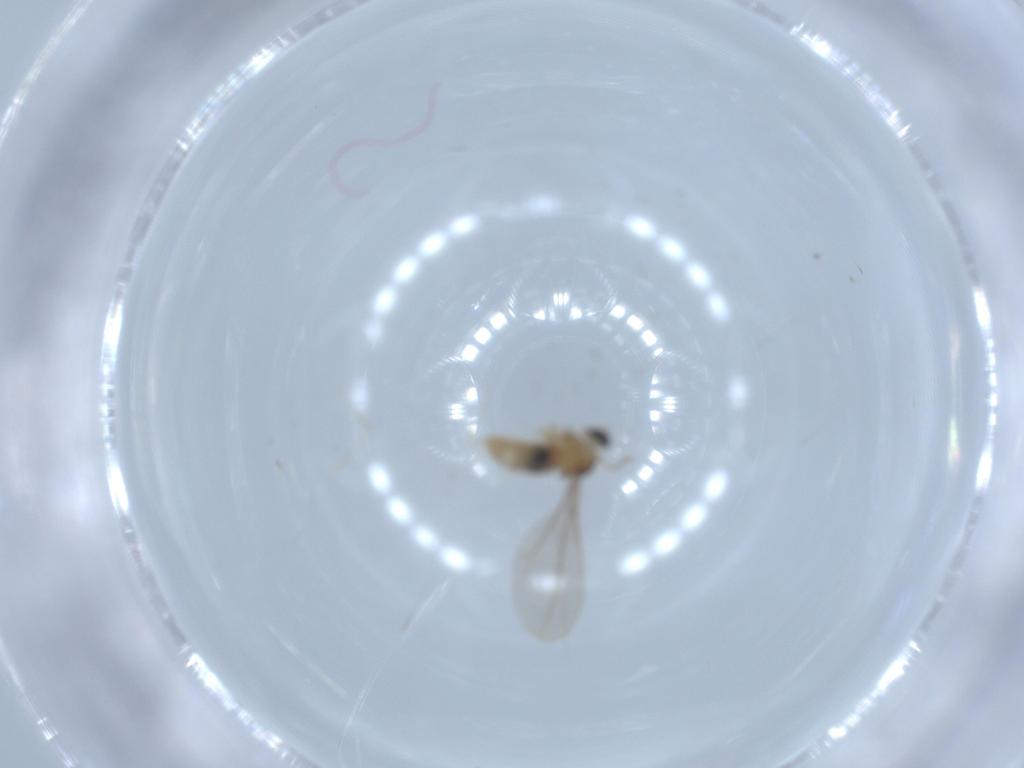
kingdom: Animalia
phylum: Arthropoda
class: Insecta
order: Diptera
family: Cecidomyiidae
